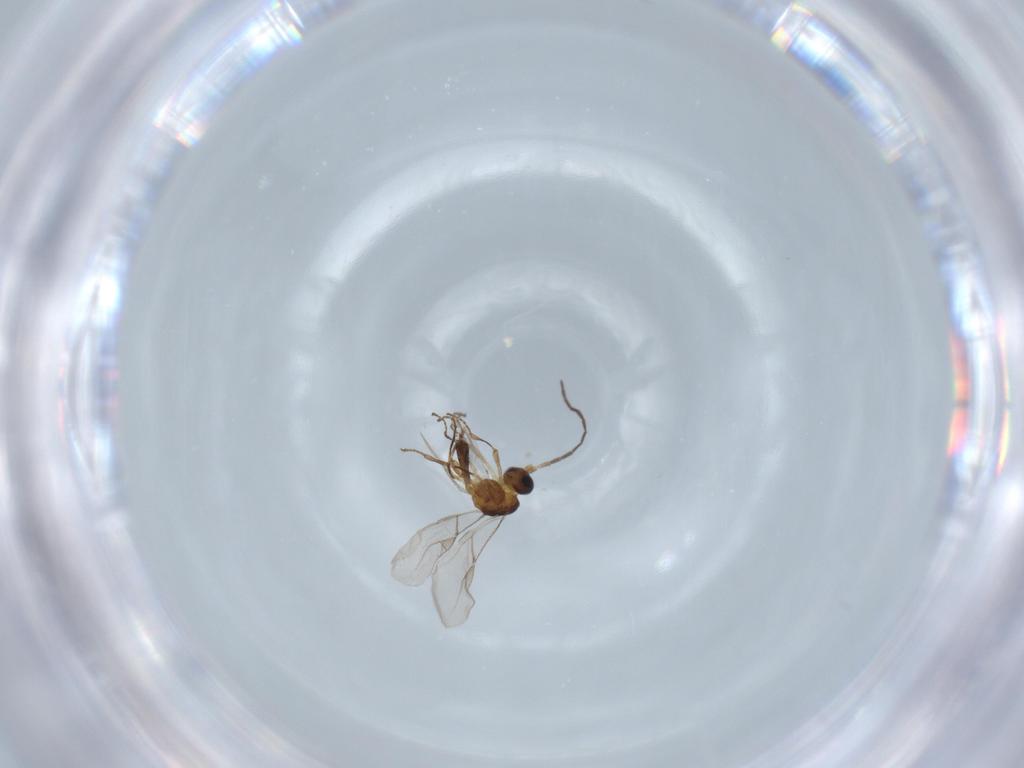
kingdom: Animalia
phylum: Arthropoda
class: Insecta
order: Hymenoptera
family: Braconidae
